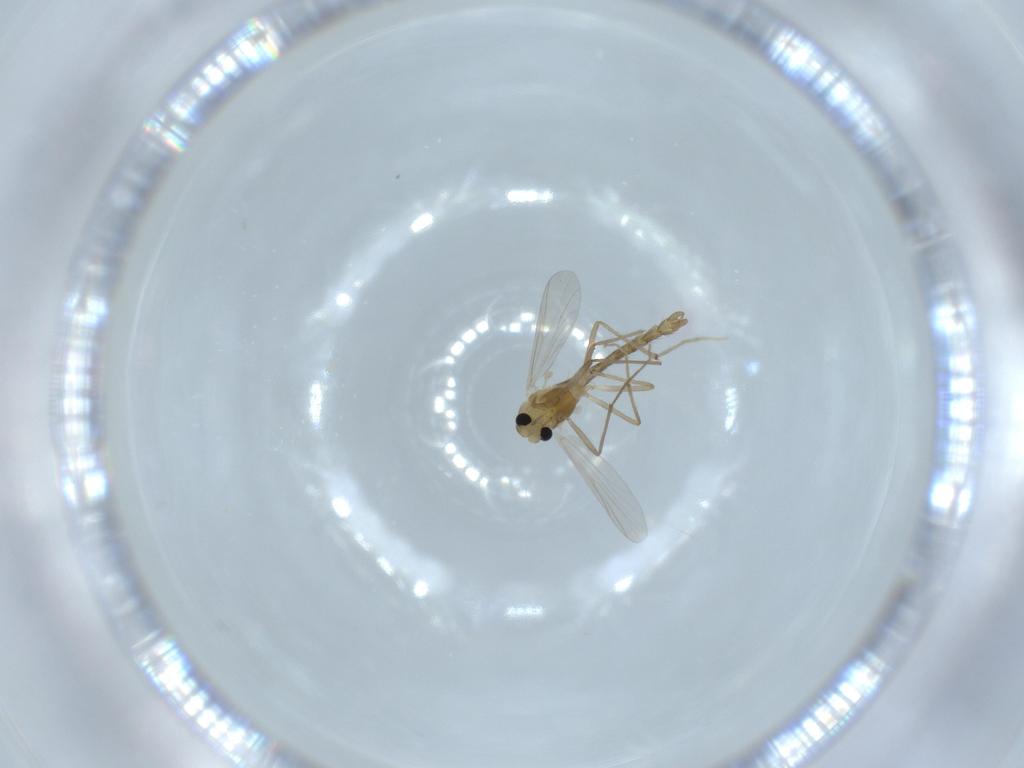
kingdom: Animalia
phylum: Arthropoda
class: Insecta
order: Diptera
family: Chironomidae
